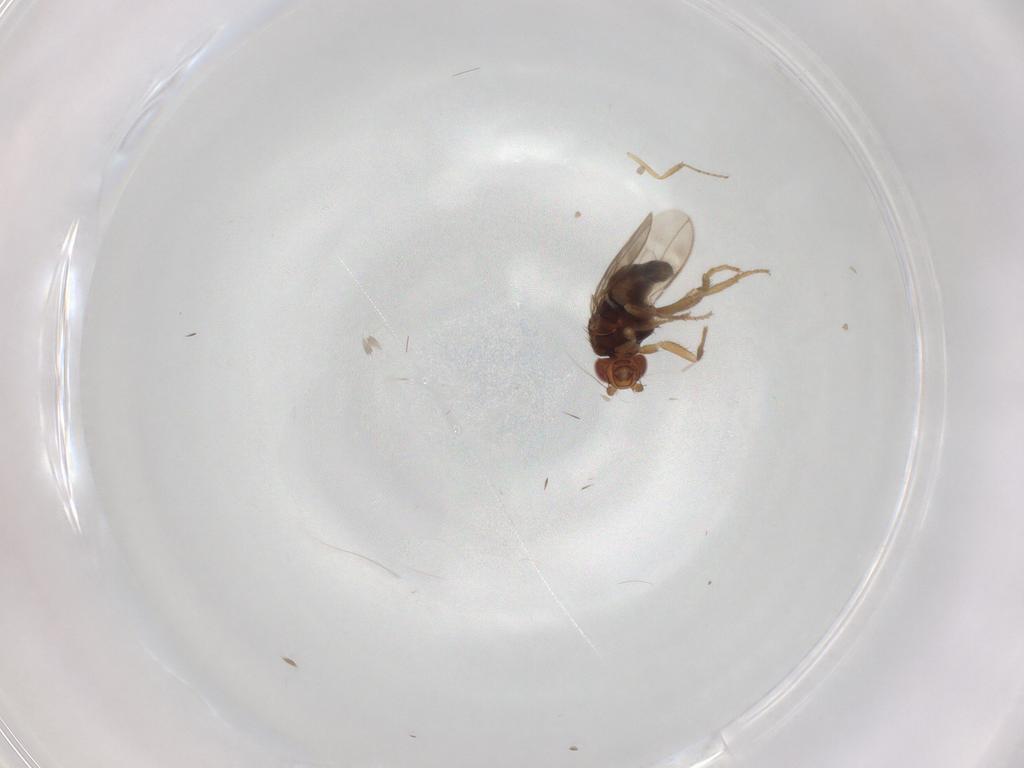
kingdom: Animalia
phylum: Arthropoda
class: Insecta
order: Diptera
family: Sphaeroceridae
